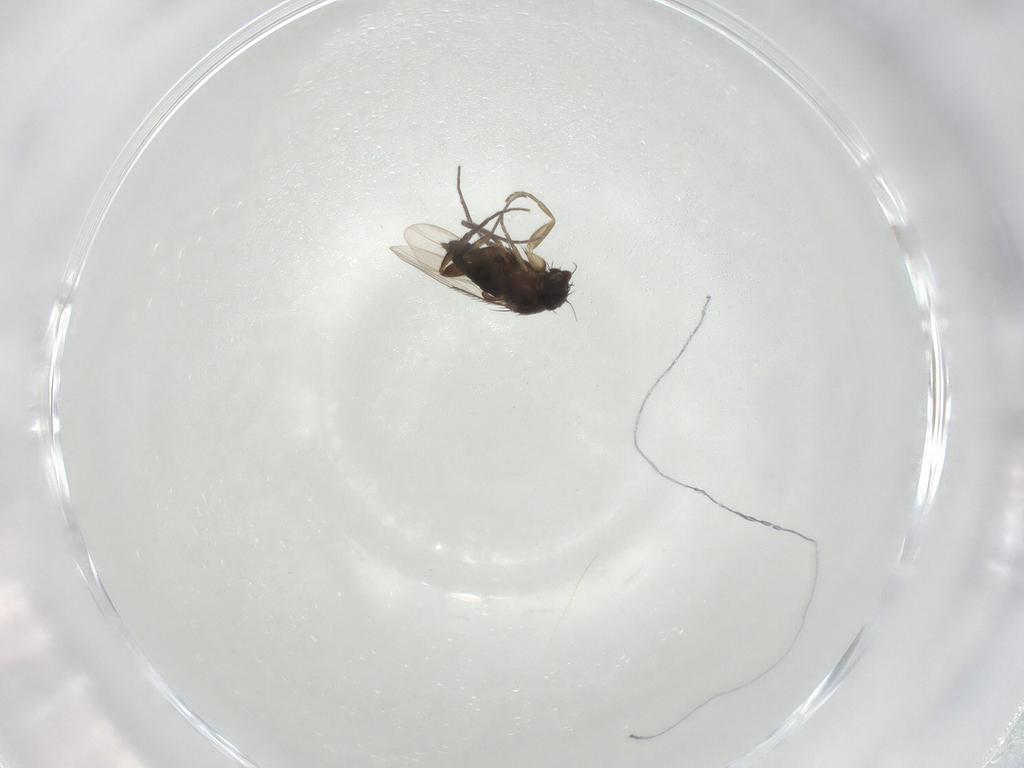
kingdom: Animalia
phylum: Arthropoda
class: Insecta
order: Diptera
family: Phoridae
